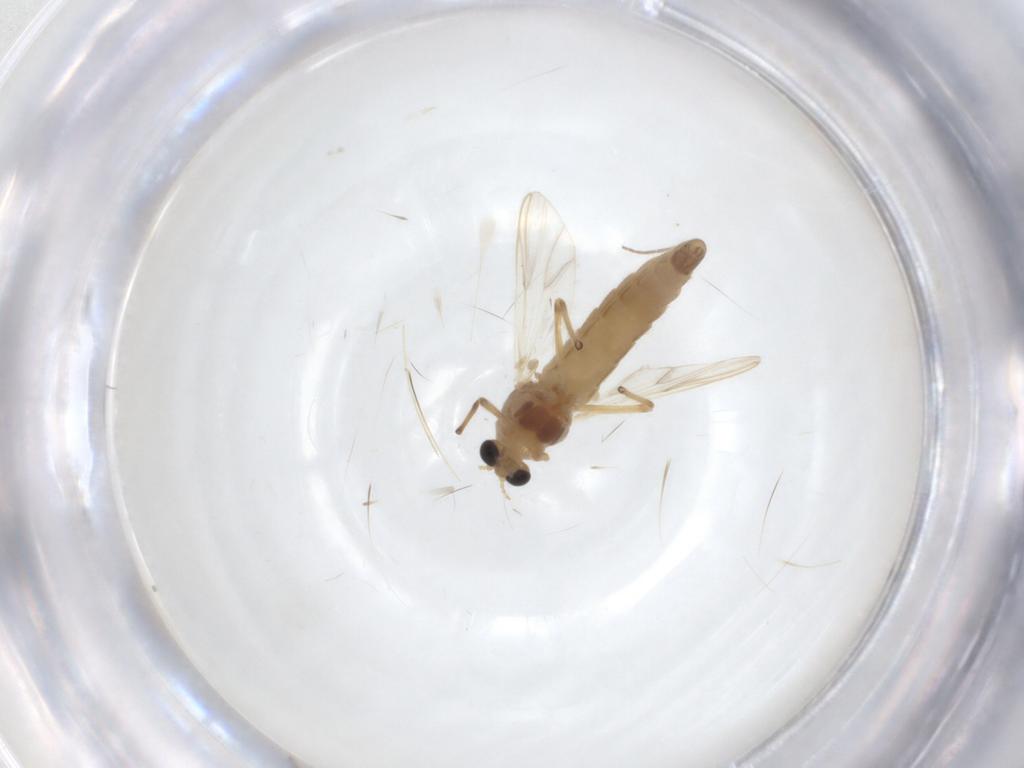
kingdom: Animalia
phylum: Arthropoda
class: Insecta
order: Diptera
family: Chironomidae
